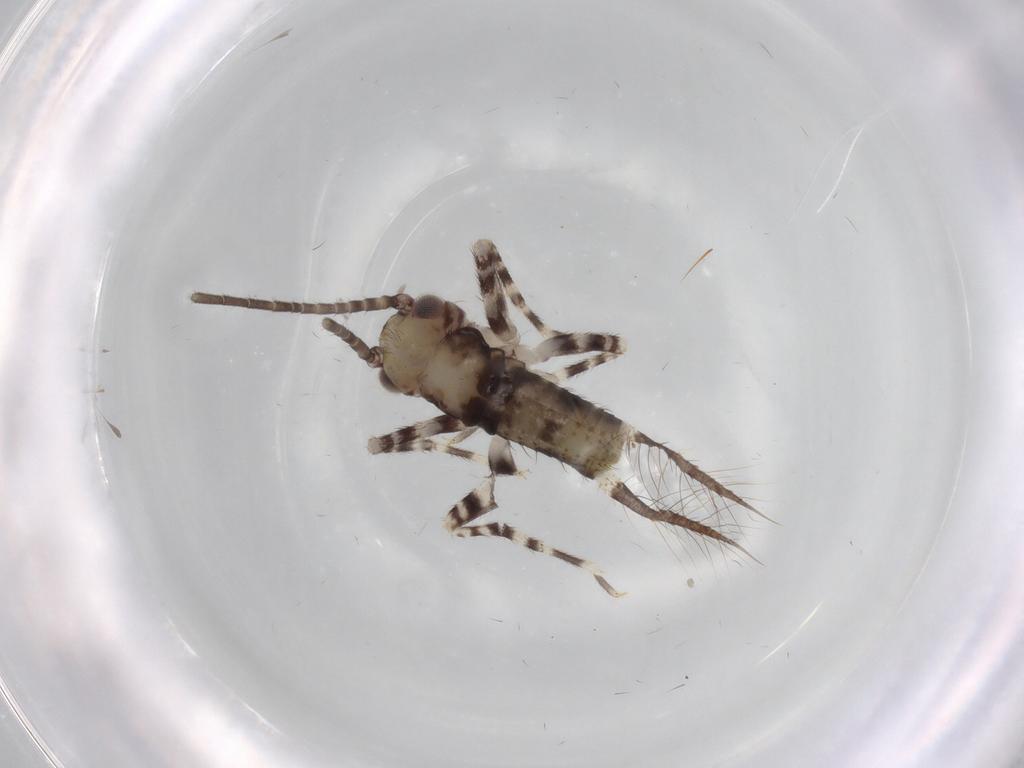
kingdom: Animalia
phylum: Arthropoda
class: Insecta
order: Orthoptera
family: Gryllidae
